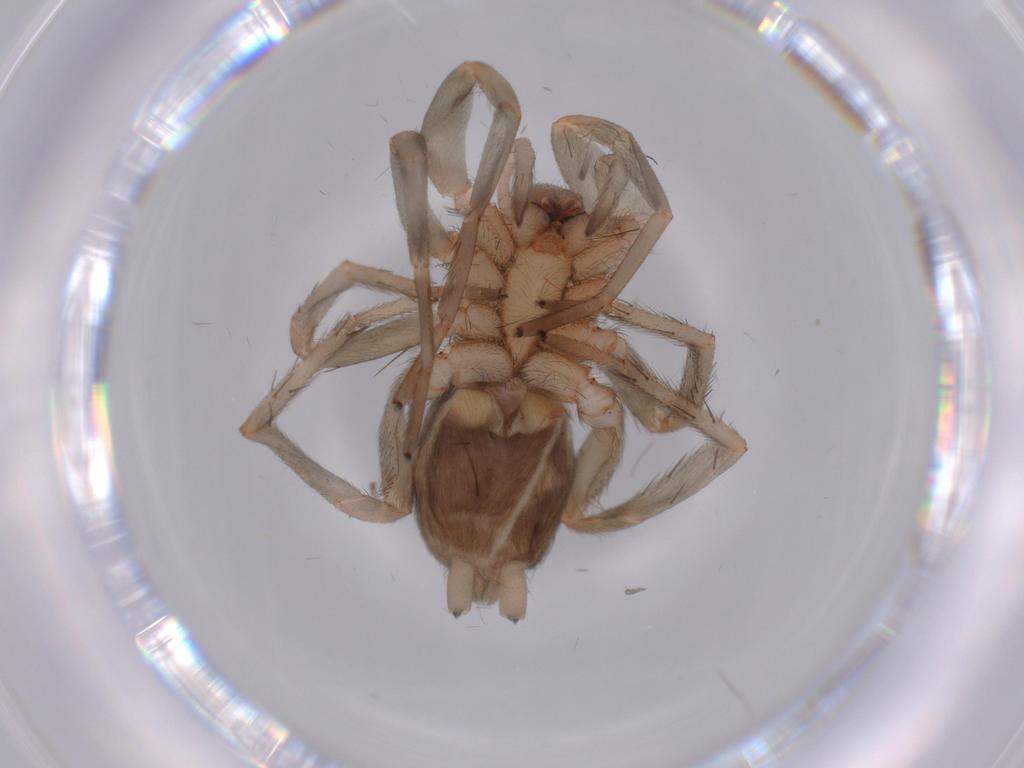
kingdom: Animalia
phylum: Arthropoda
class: Arachnida
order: Araneae
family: Gnaphosidae
